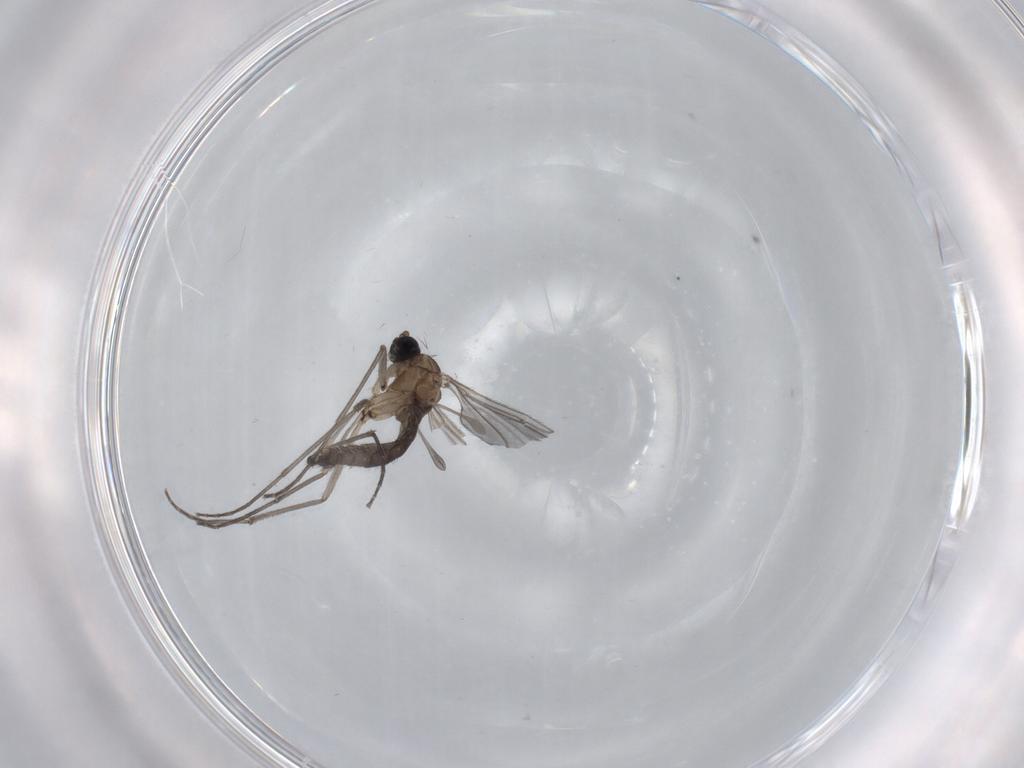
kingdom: Animalia
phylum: Arthropoda
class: Insecta
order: Diptera
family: Sciaridae
